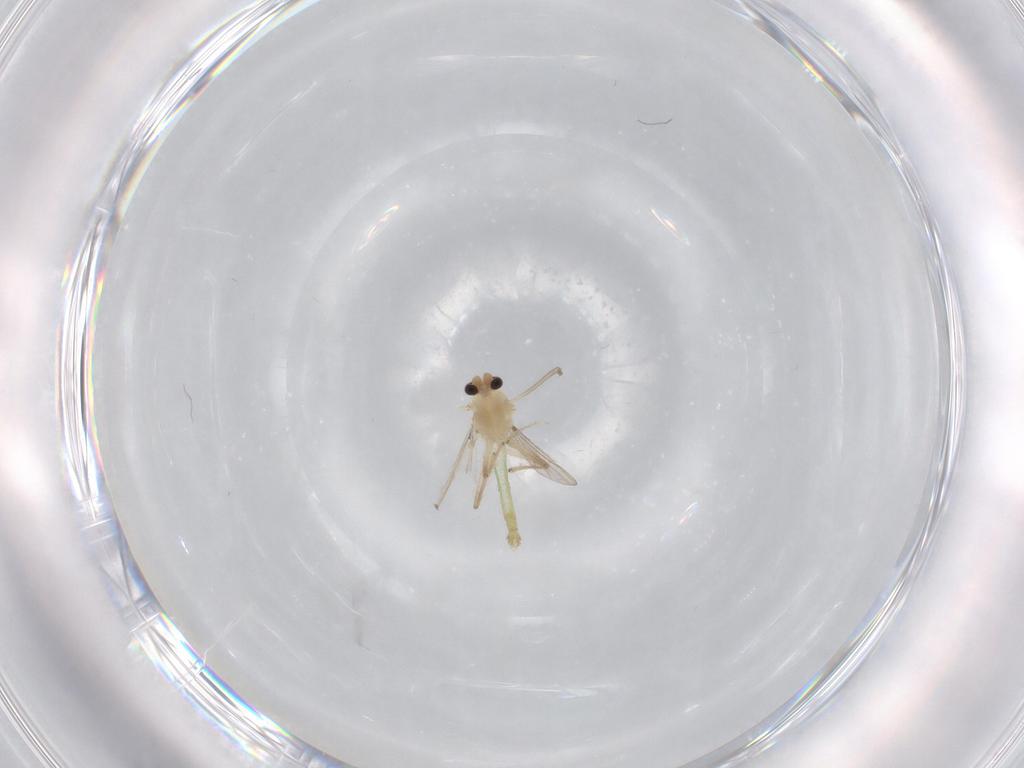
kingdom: Animalia
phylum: Arthropoda
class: Insecta
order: Diptera
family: Chironomidae
